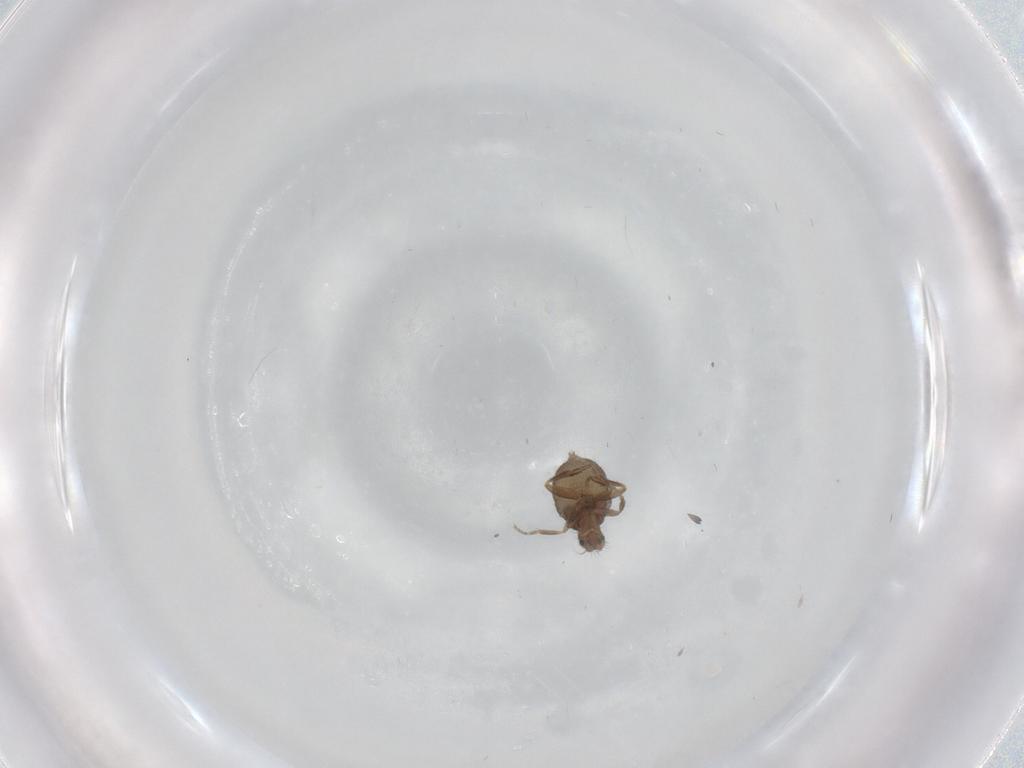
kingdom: Animalia
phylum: Arthropoda
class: Insecta
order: Diptera
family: Phoridae
